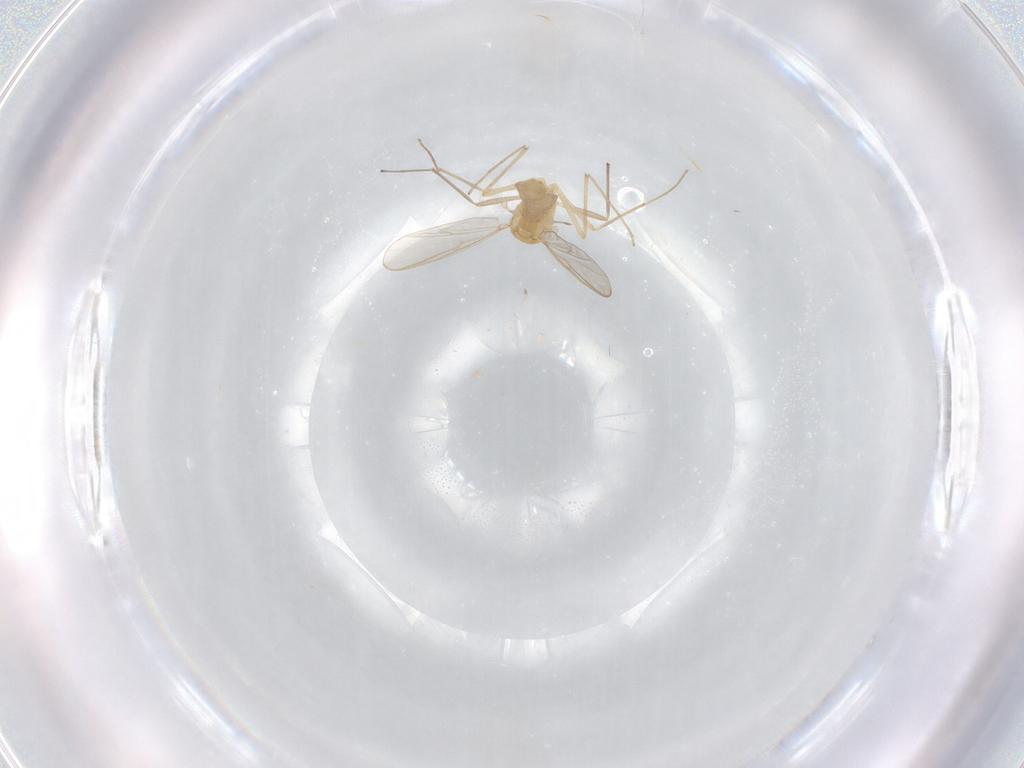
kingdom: Animalia
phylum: Arthropoda
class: Insecta
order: Diptera
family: Chironomidae
